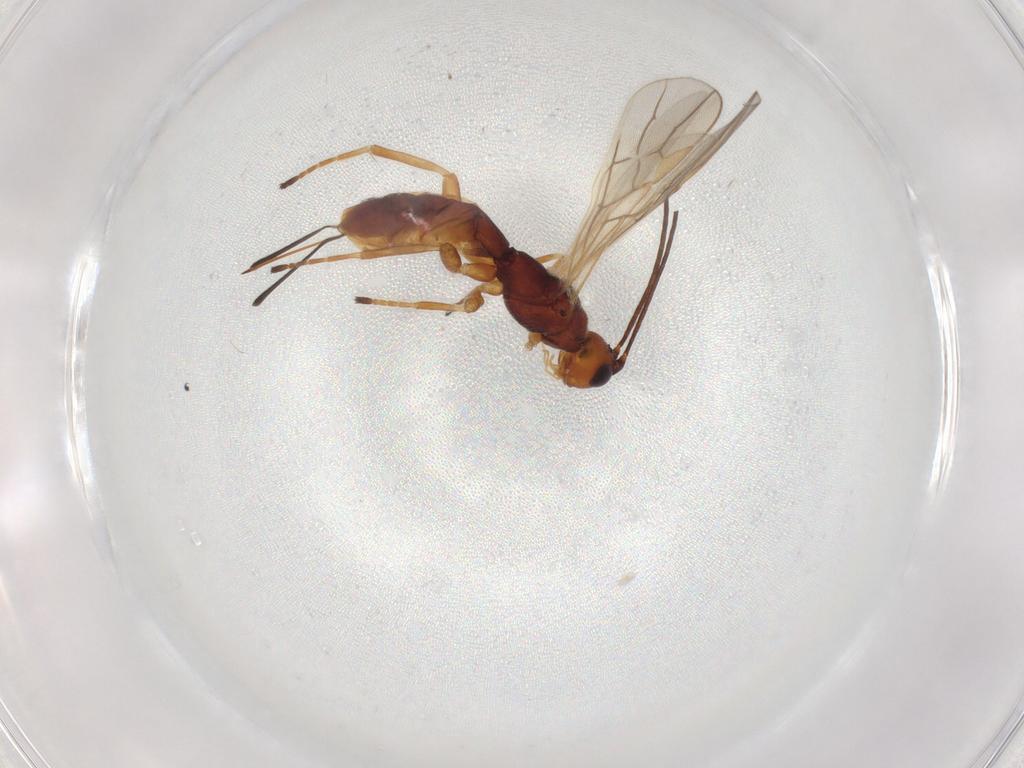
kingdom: Animalia
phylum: Arthropoda
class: Insecta
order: Hymenoptera
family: Braconidae
